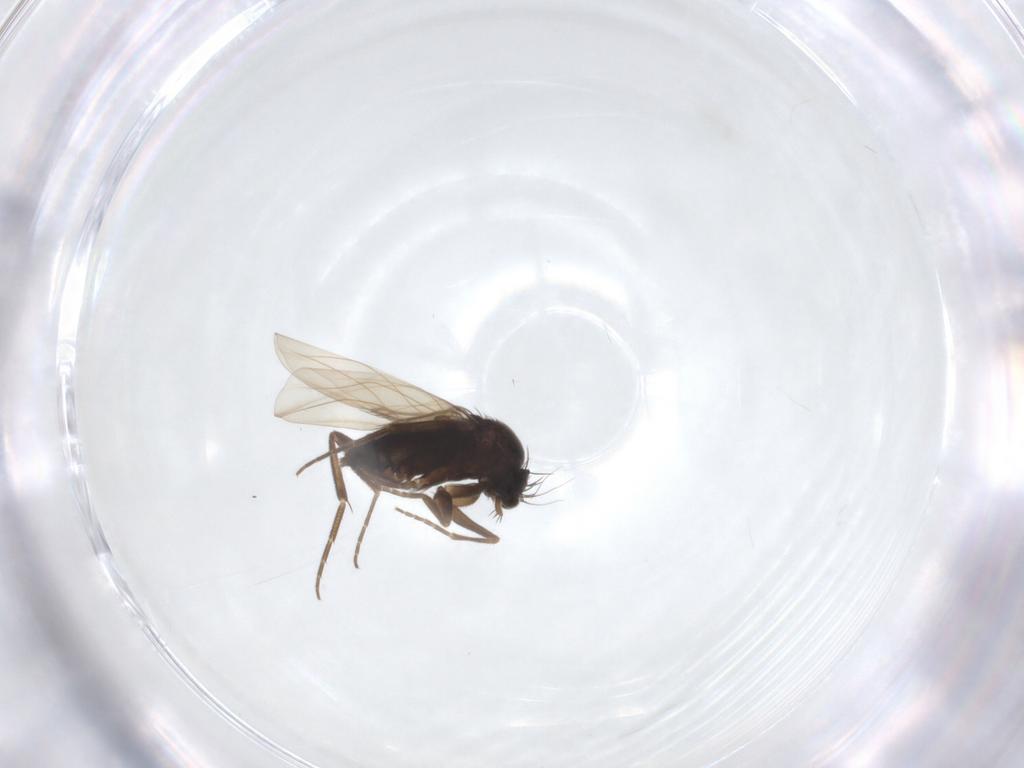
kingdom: Animalia
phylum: Arthropoda
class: Insecta
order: Diptera
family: Phoridae
